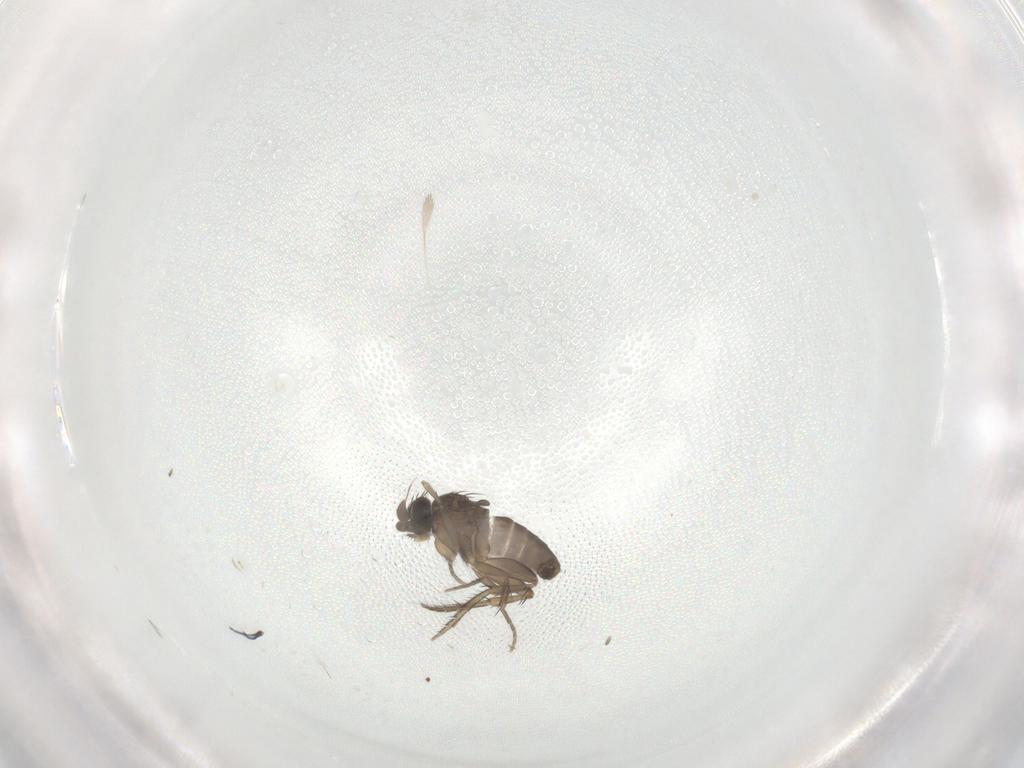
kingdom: Animalia
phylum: Arthropoda
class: Insecta
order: Diptera
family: Phoridae
